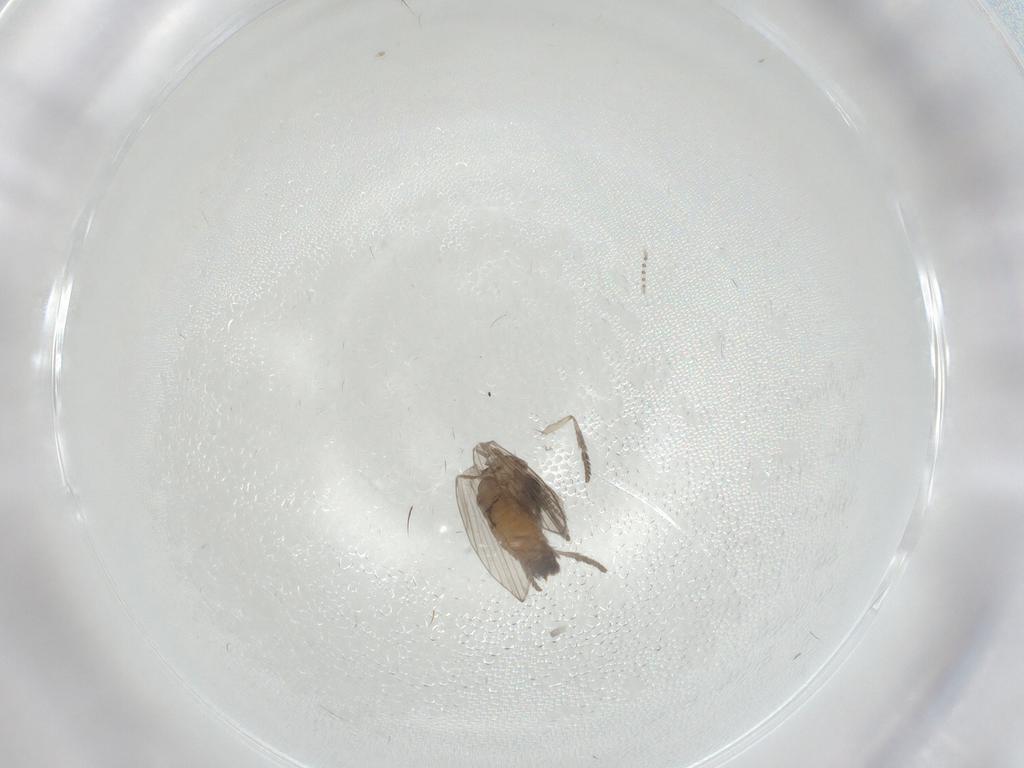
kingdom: Animalia
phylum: Arthropoda
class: Insecta
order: Diptera
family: Psychodidae
